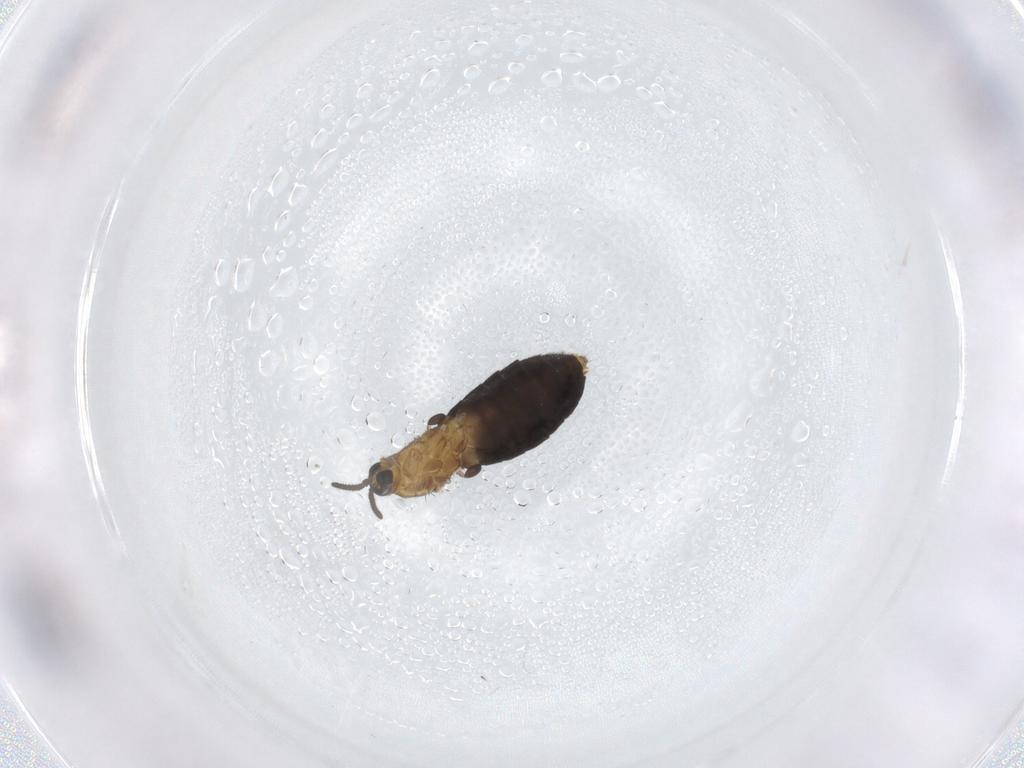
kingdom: Animalia
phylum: Arthropoda
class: Insecta
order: Diptera
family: Scatopsidae
